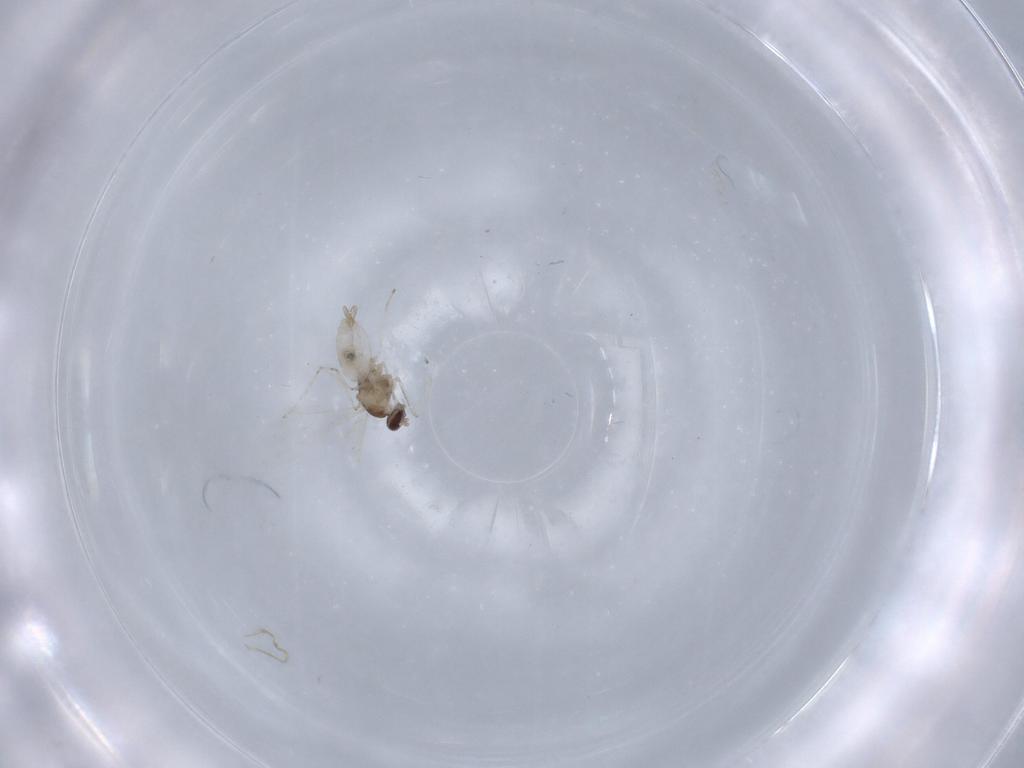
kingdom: Animalia
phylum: Arthropoda
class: Insecta
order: Diptera
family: Cecidomyiidae
